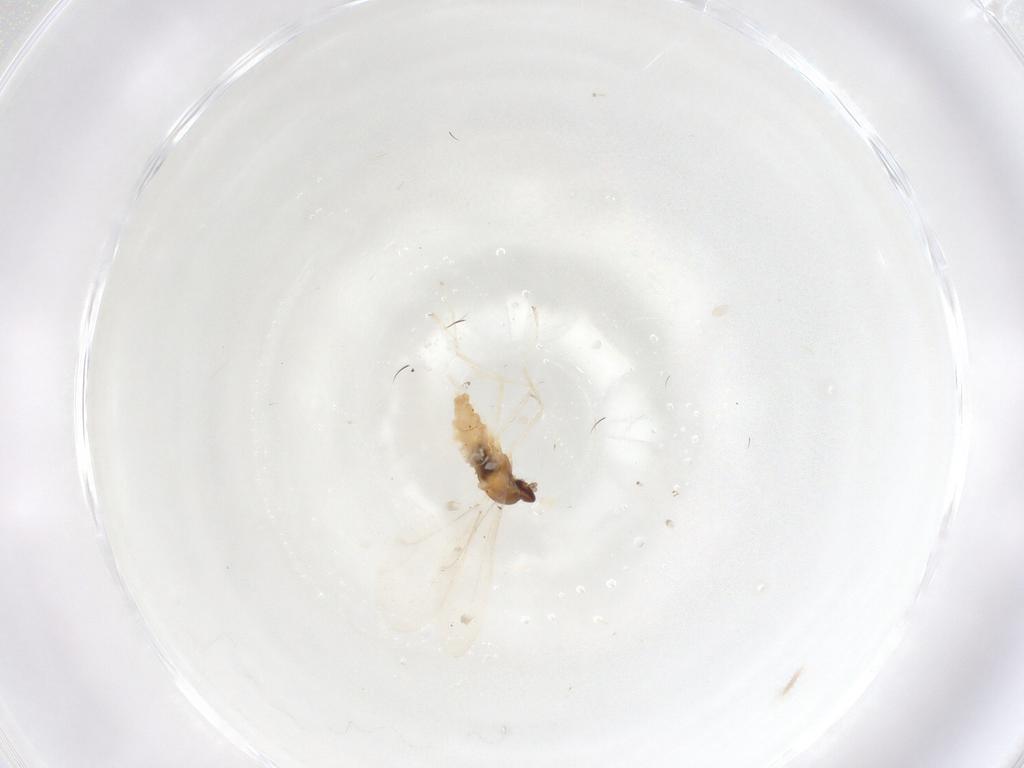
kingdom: Animalia
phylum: Arthropoda
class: Insecta
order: Diptera
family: Cecidomyiidae
